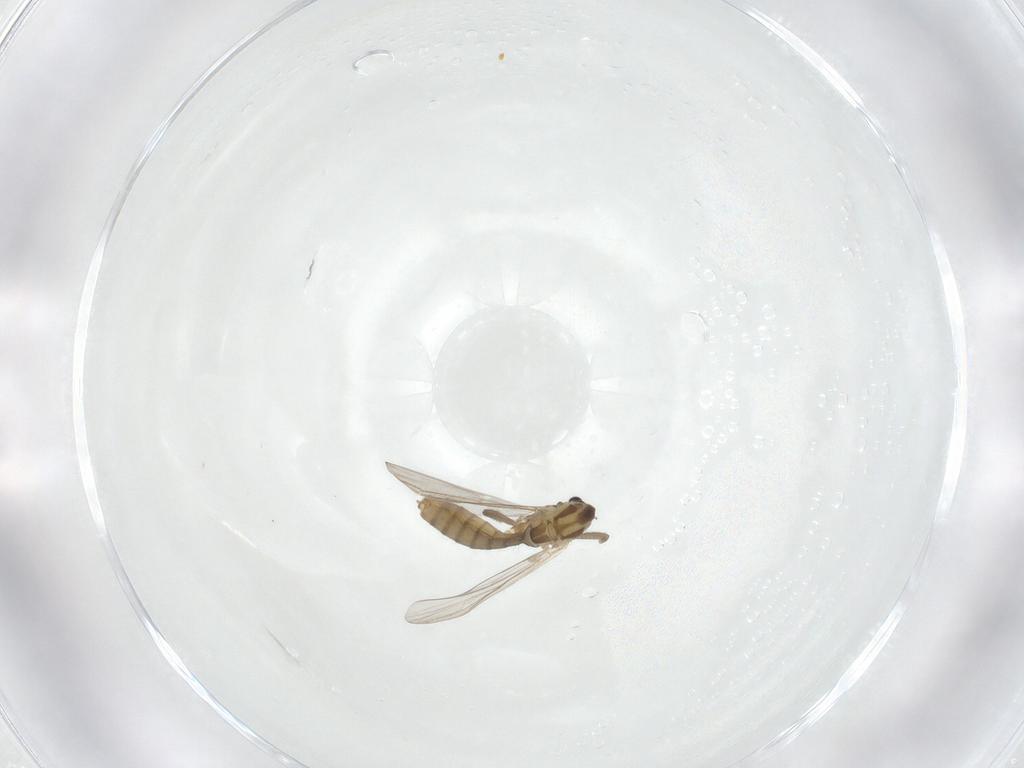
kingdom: Animalia
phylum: Arthropoda
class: Insecta
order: Diptera
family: Chironomidae
